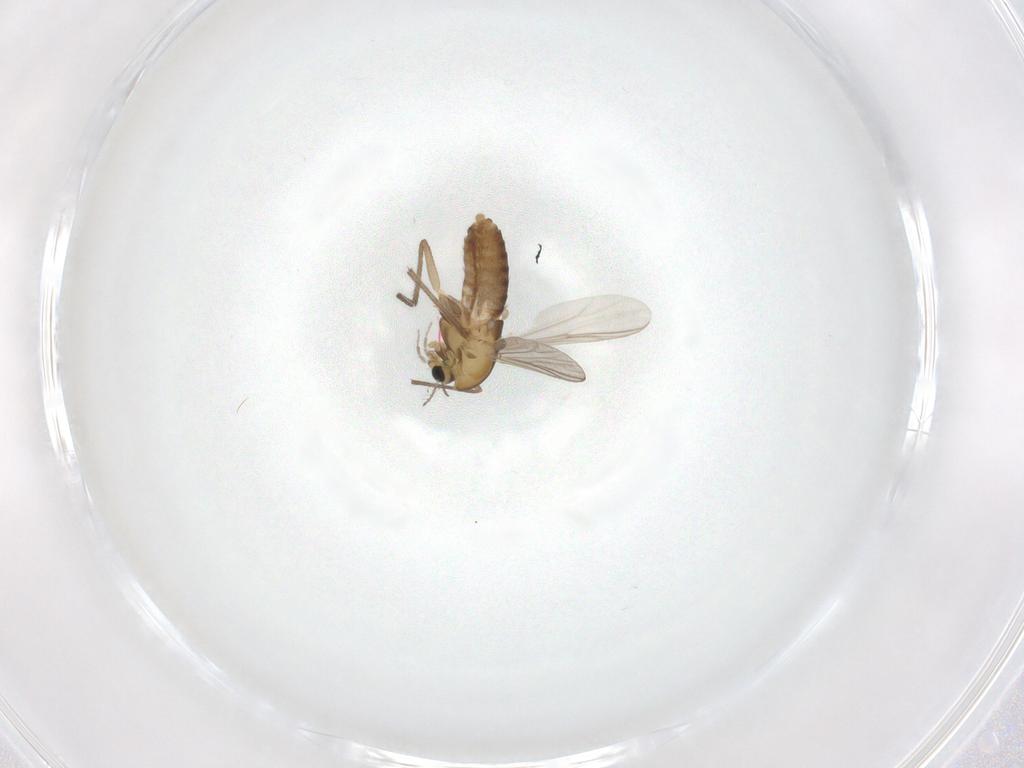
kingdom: Animalia
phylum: Arthropoda
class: Insecta
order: Diptera
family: Chironomidae
